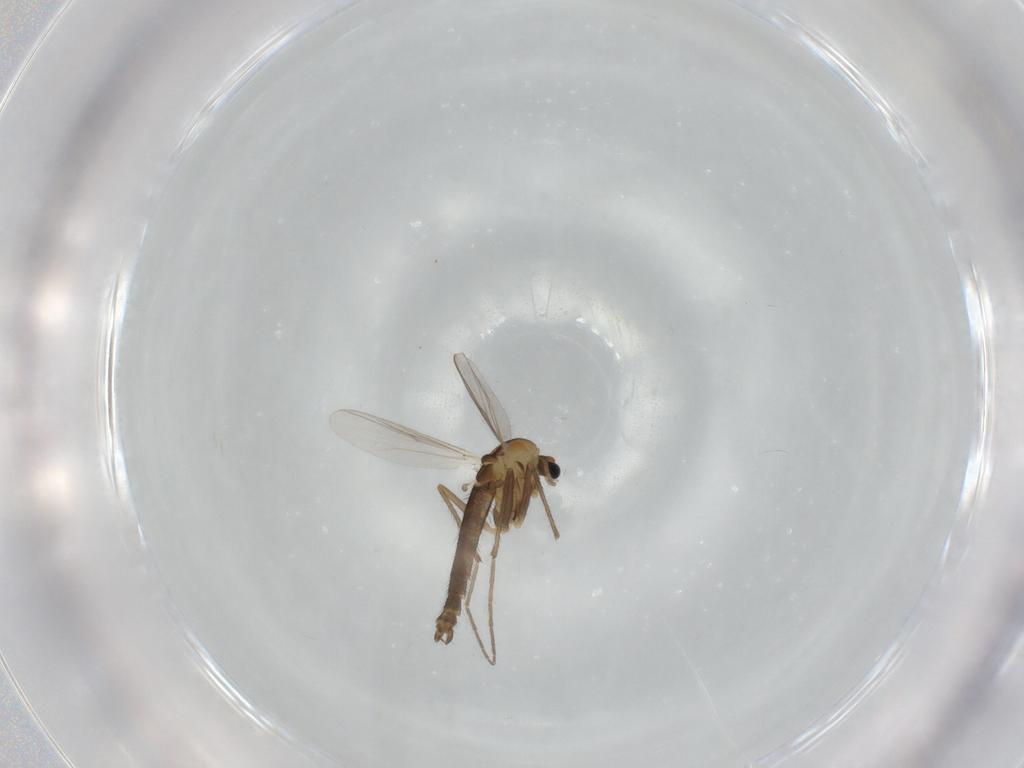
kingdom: Animalia
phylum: Arthropoda
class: Insecta
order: Diptera
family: Chironomidae
